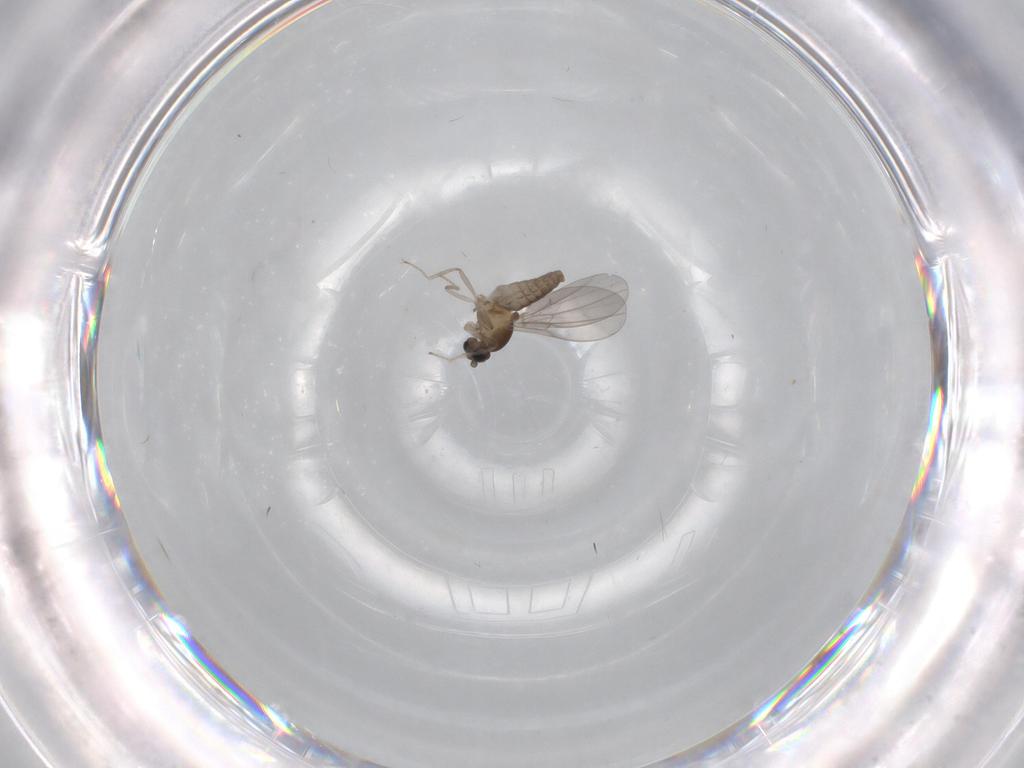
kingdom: Animalia
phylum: Arthropoda
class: Insecta
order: Diptera
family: Cecidomyiidae
